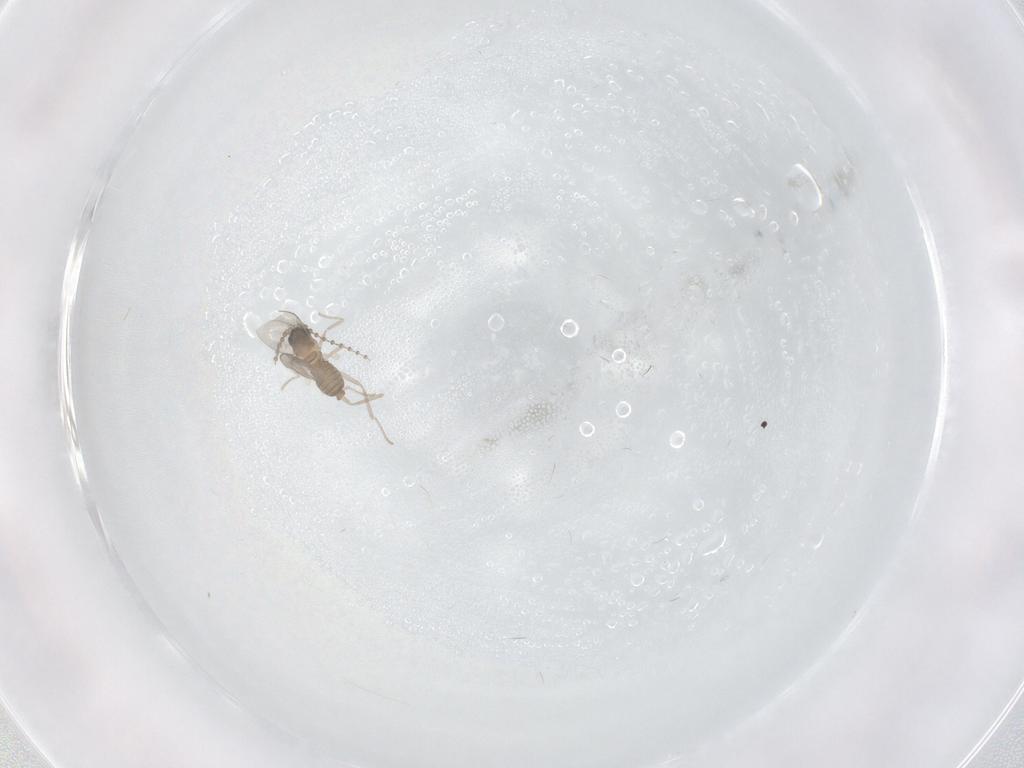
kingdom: Animalia
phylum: Arthropoda
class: Insecta
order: Diptera
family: Cecidomyiidae
